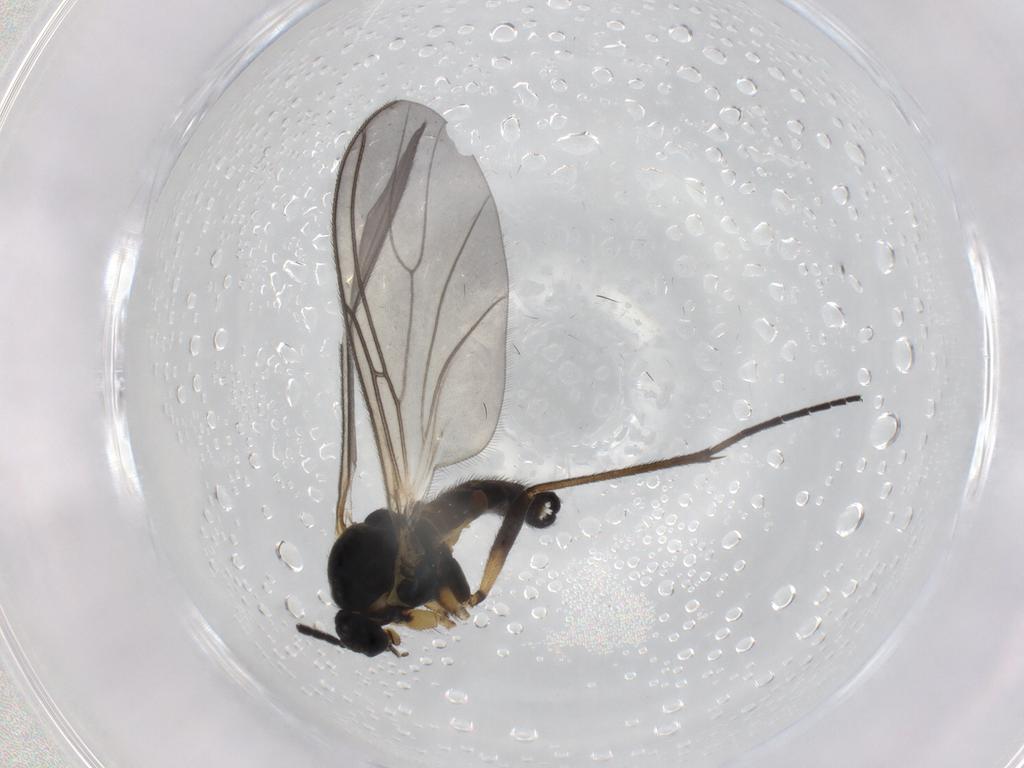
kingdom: Animalia
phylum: Arthropoda
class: Insecta
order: Diptera
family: Sciaridae
